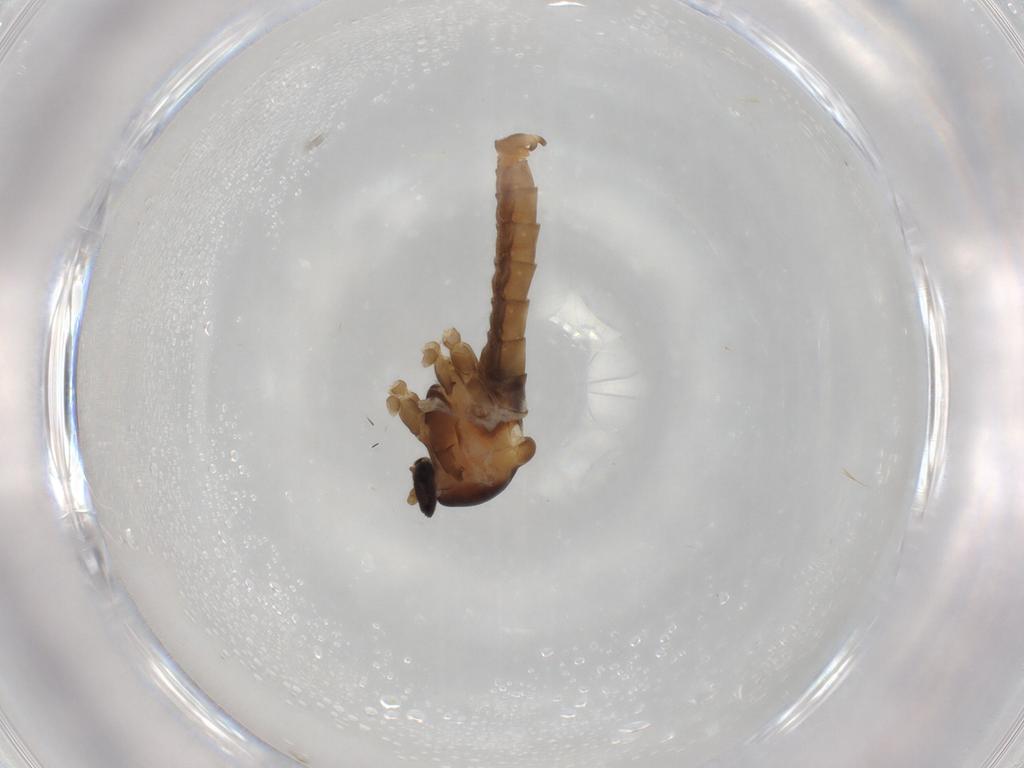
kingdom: Animalia
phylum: Arthropoda
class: Insecta
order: Diptera
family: Cecidomyiidae
